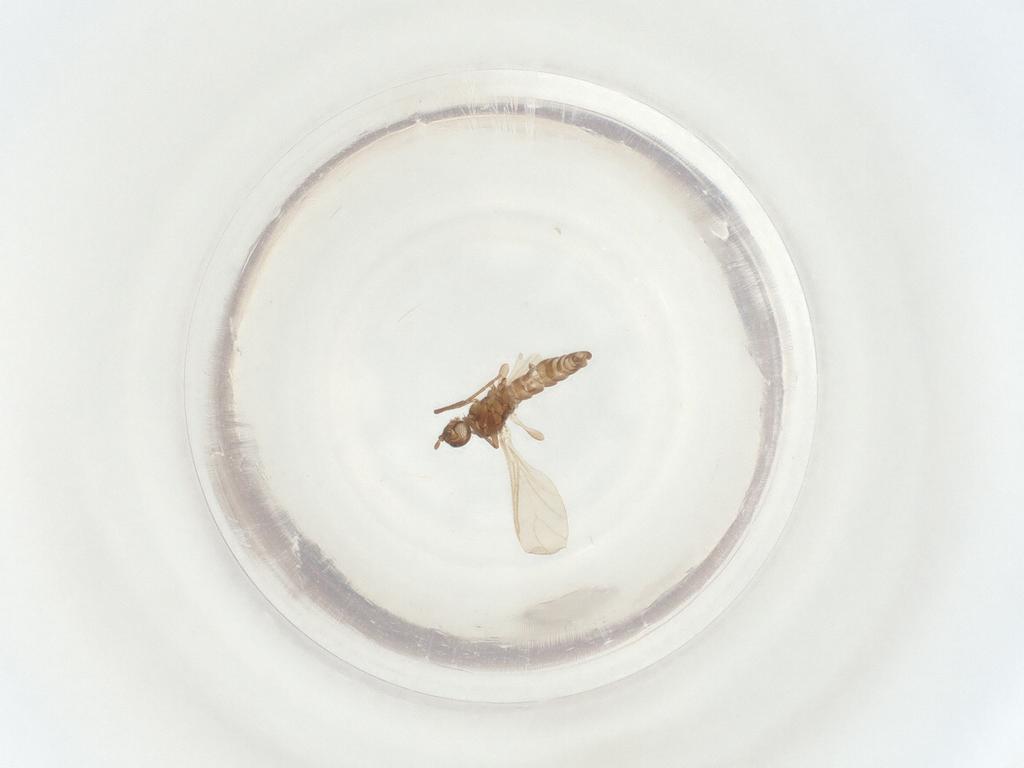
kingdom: Animalia
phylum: Arthropoda
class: Insecta
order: Diptera
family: Sciaridae
